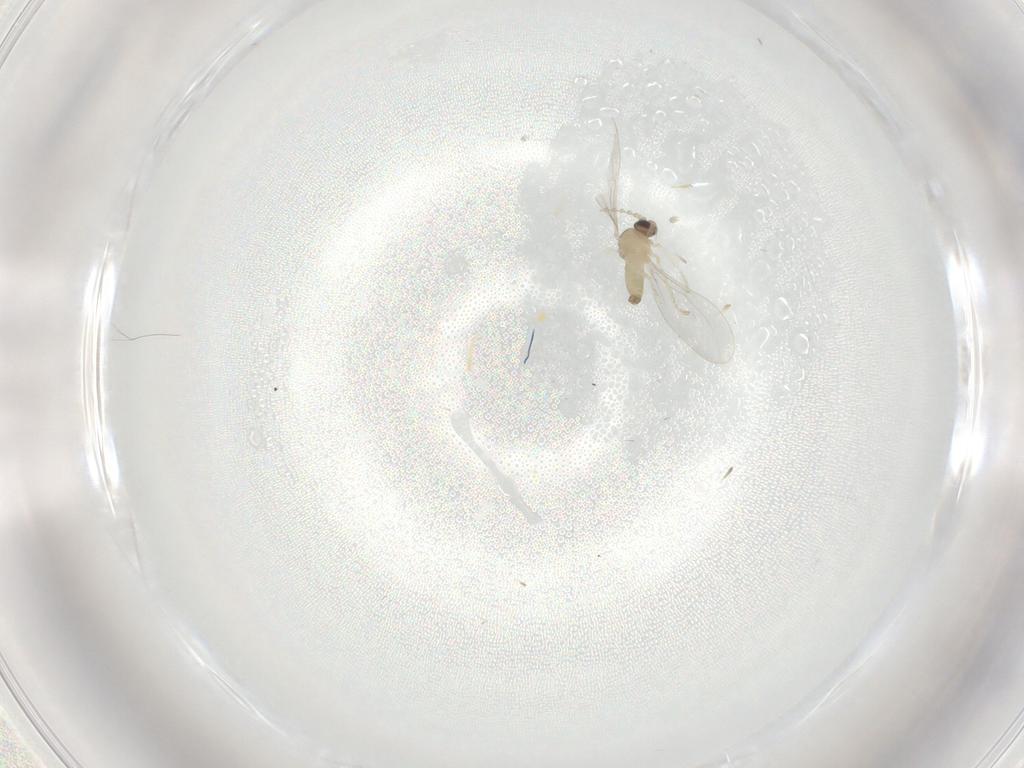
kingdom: Animalia
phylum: Arthropoda
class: Insecta
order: Diptera
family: Cecidomyiidae
